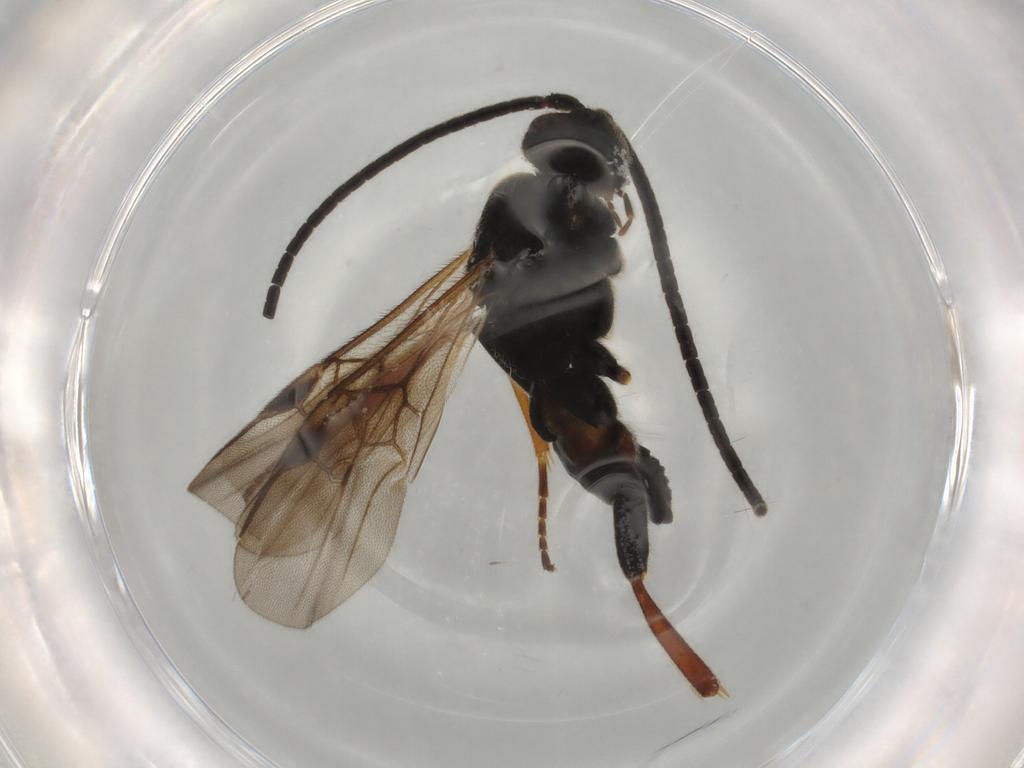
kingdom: Animalia
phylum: Arthropoda
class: Insecta
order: Hymenoptera
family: Braconidae
